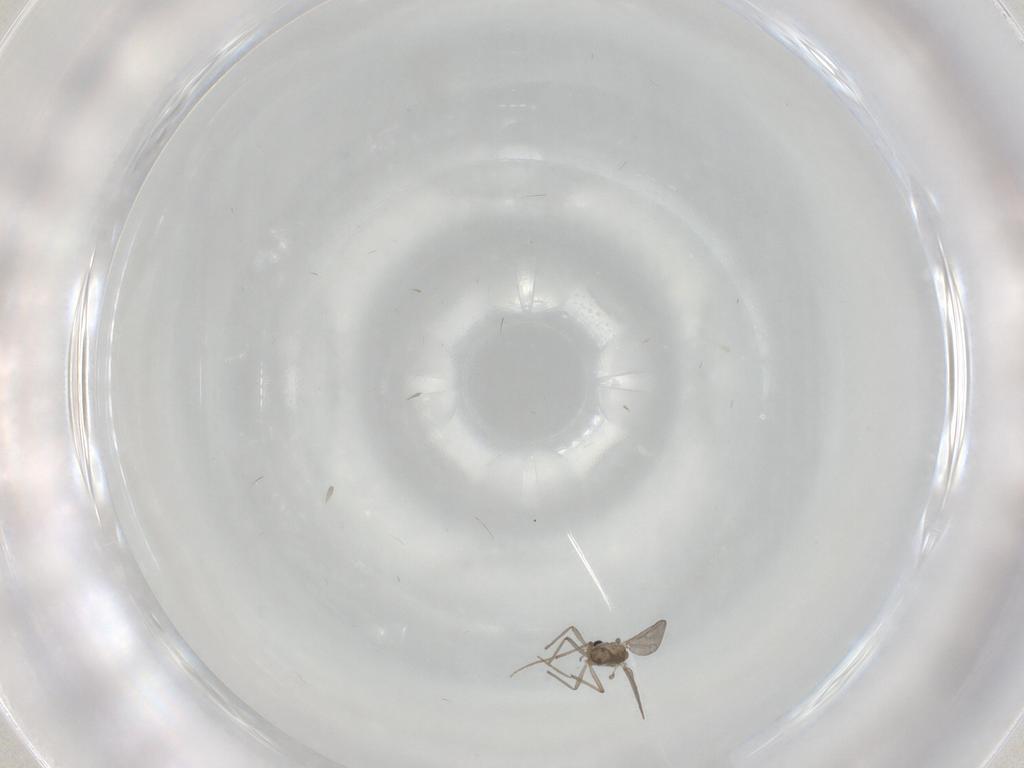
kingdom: Animalia
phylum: Arthropoda
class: Insecta
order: Diptera
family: Chironomidae
